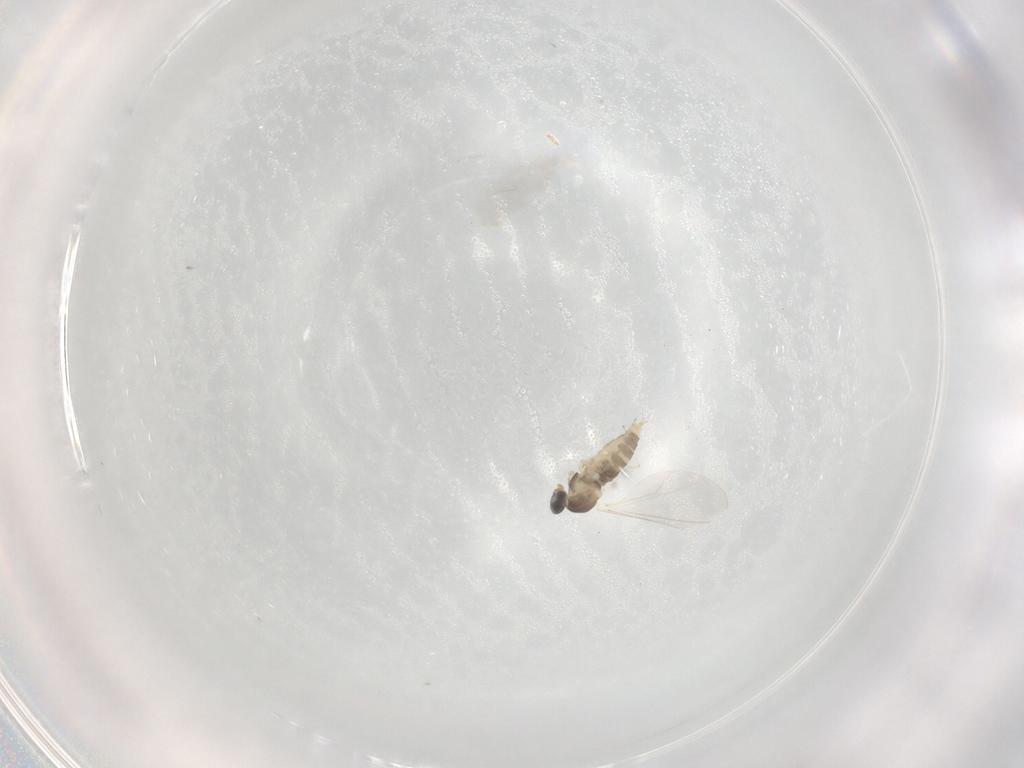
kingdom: Animalia
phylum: Arthropoda
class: Insecta
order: Diptera
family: Cecidomyiidae
